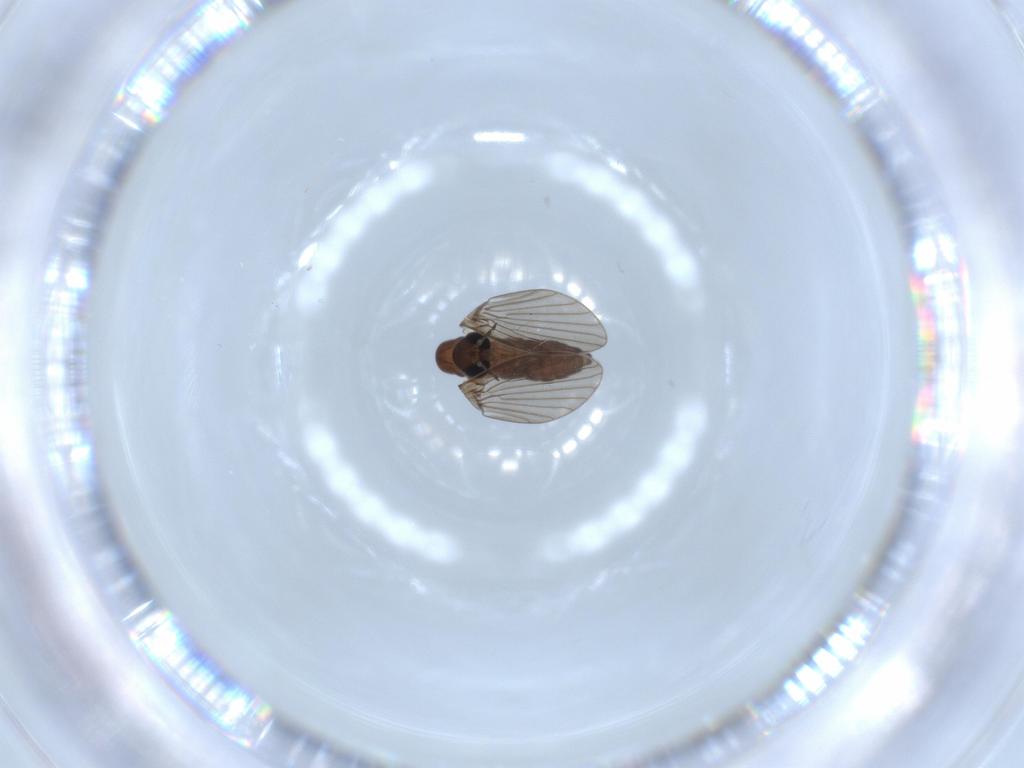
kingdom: Animalia
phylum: Arthropoda
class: Insecta
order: Diptera
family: Psychodidae
